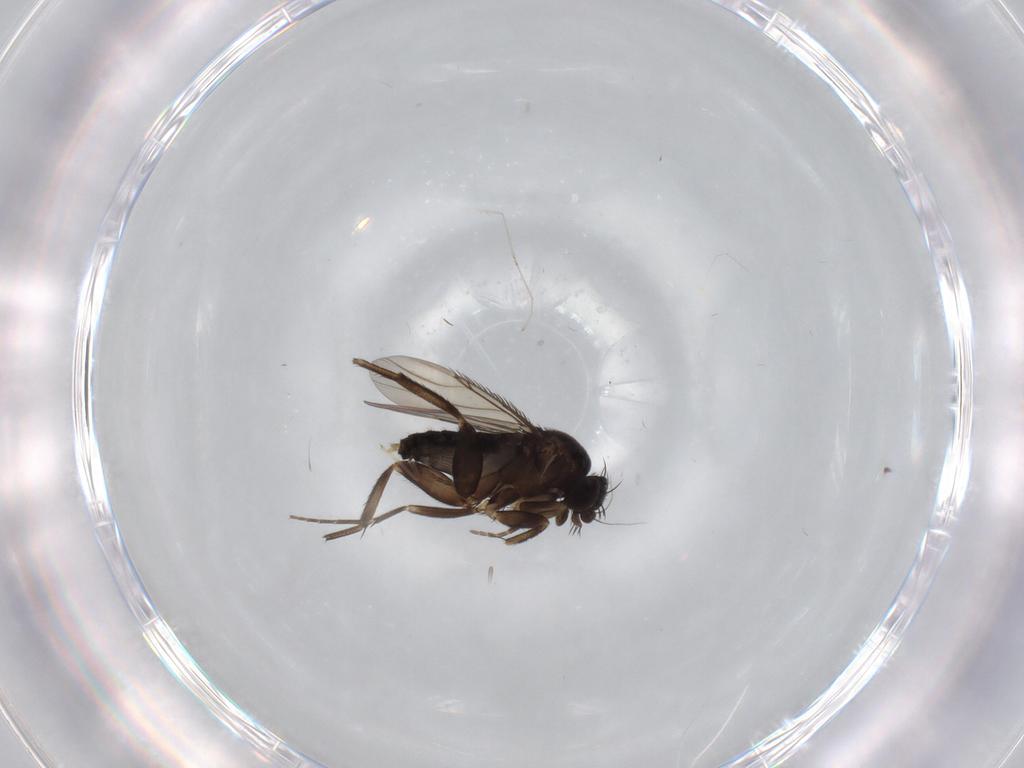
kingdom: Animalia
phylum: Arthropoda
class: Insecta
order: Diptera
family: Phoridae
